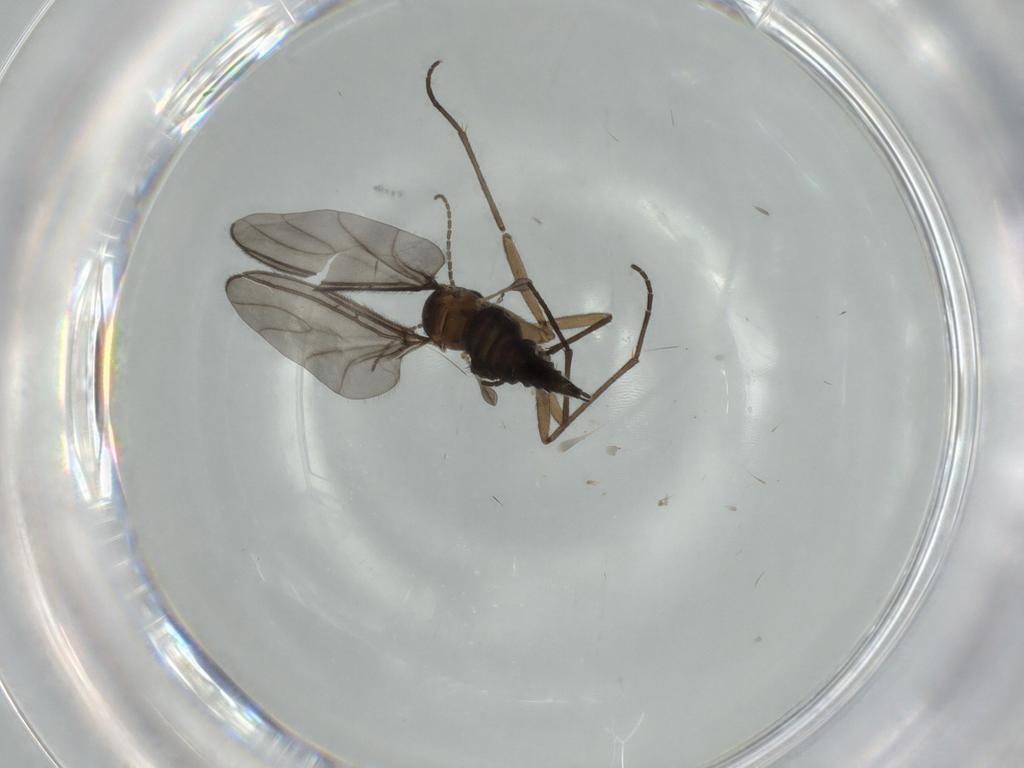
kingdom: Animalia
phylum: Arthropoda
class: Insecta
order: Diptera
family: Sciaridae
